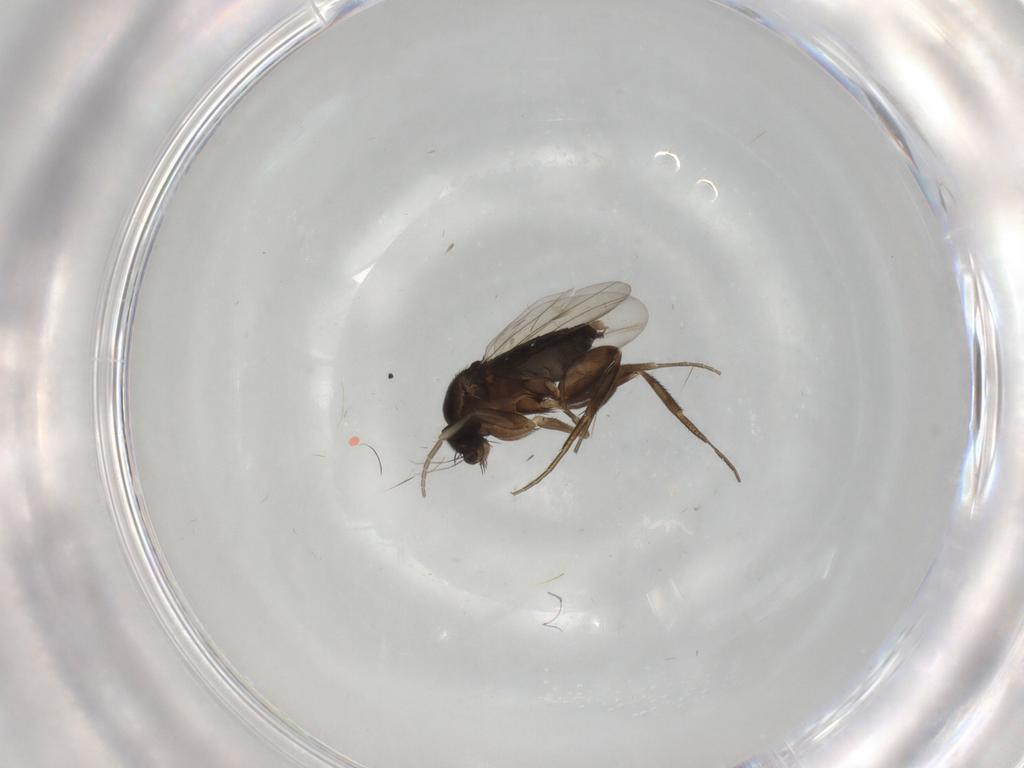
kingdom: Animalia
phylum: Arthropoda
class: Insecta
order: Diptera
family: Phoridae
